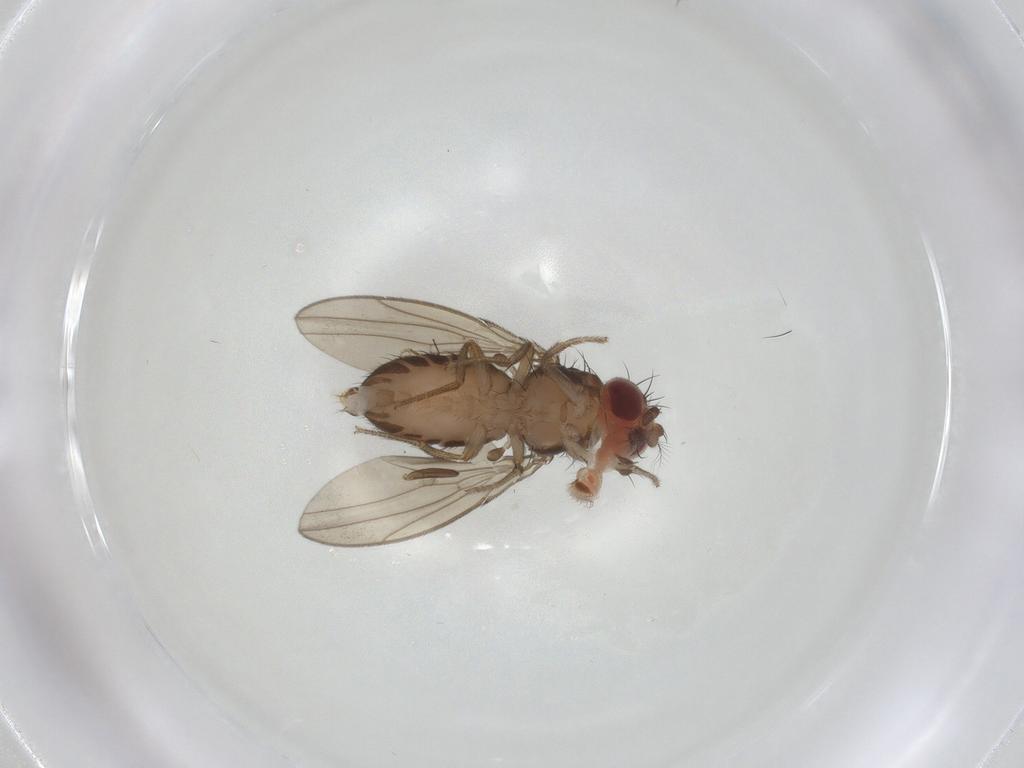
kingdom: Animalia
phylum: Arthropoda
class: Insecta
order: Diptera
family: Drosophilidae
